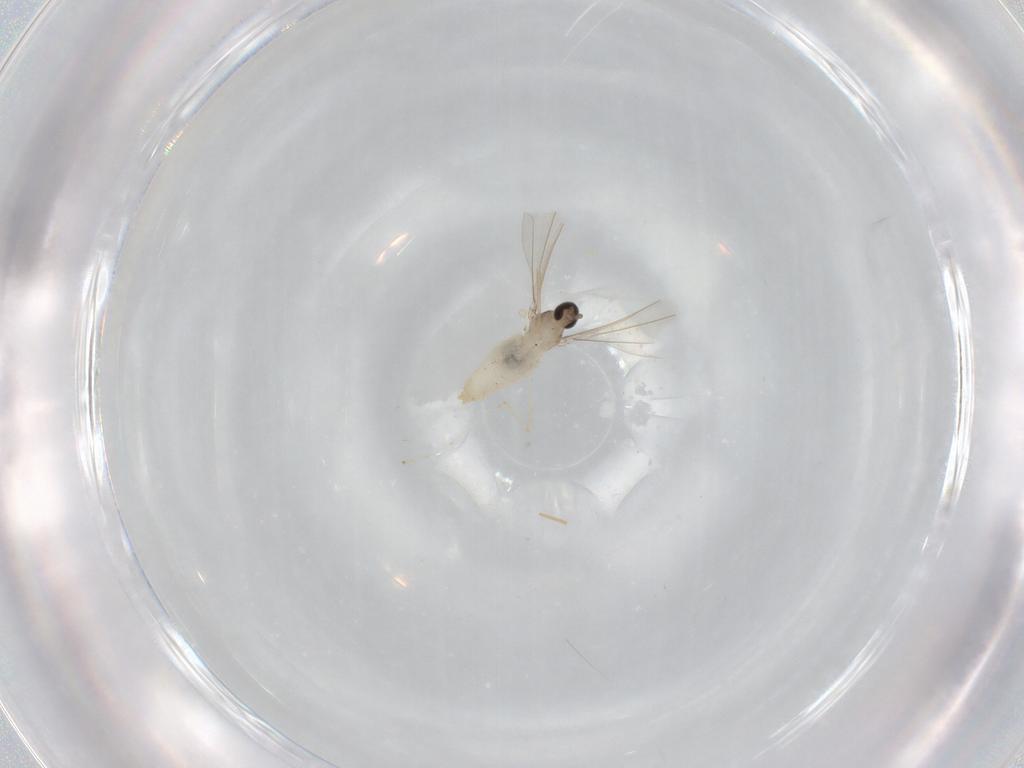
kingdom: Animalia
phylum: Arthropoda
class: Insecta
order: Diptera
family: Cecidomyiidae
